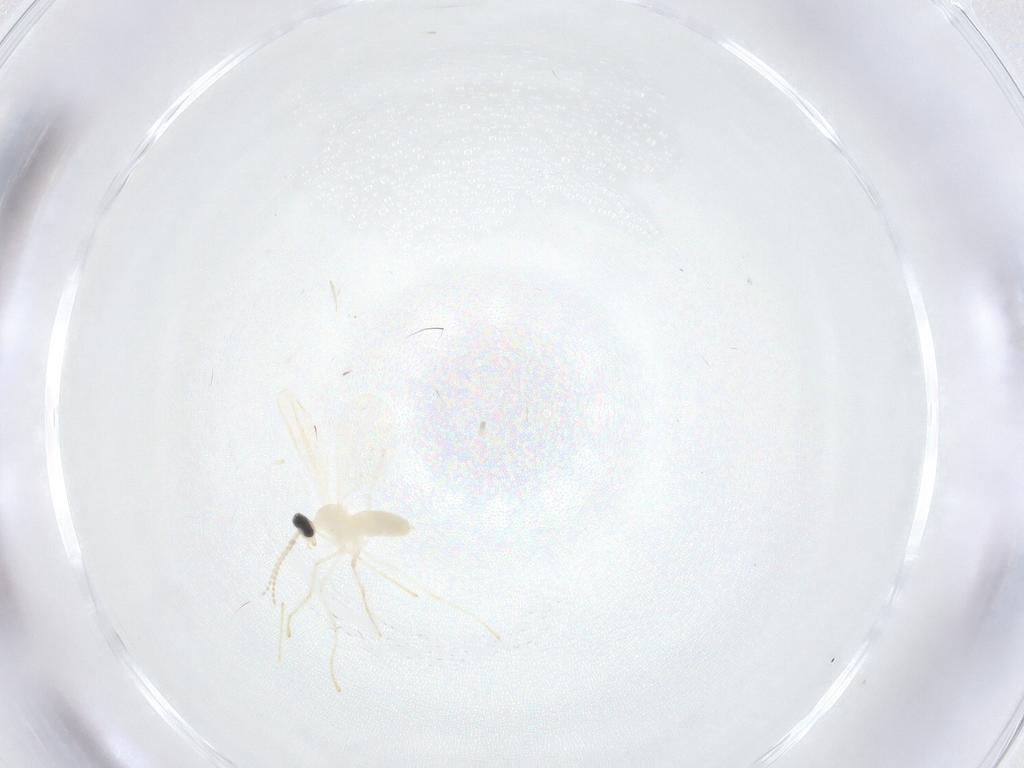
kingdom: Animalia
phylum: Arthropoda
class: Insecta
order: Diptera
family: Cecidomyiidae
